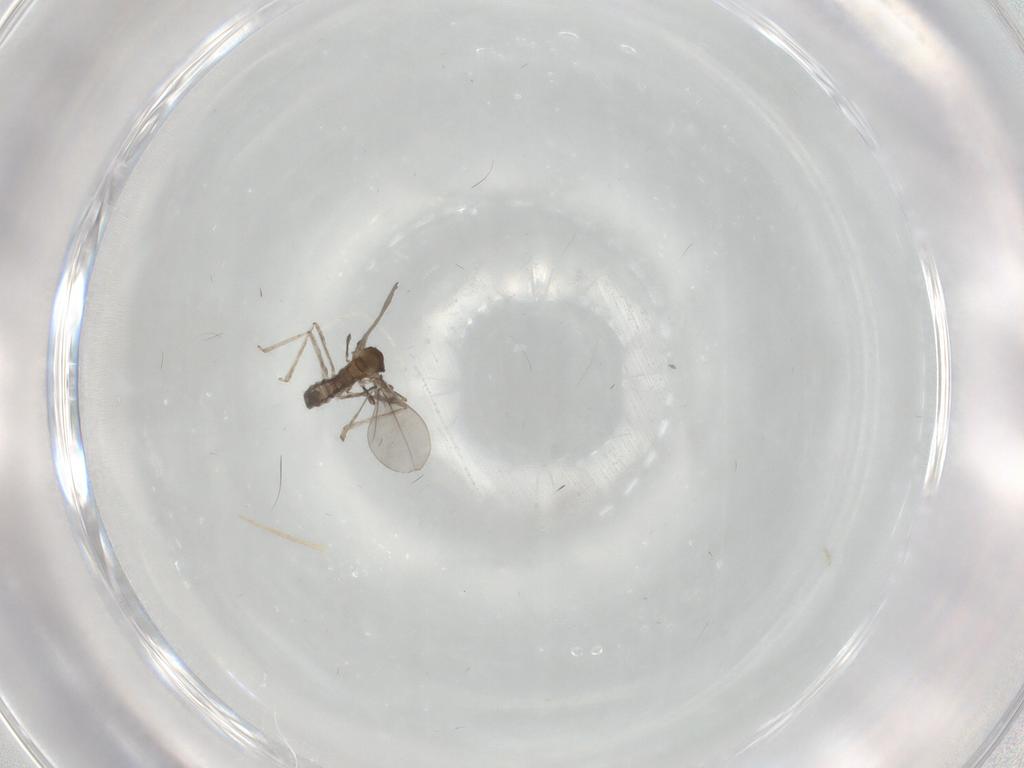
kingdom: Animalia
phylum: Arthropoda
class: Insecta
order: Diptera
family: Cecidomyiidae
